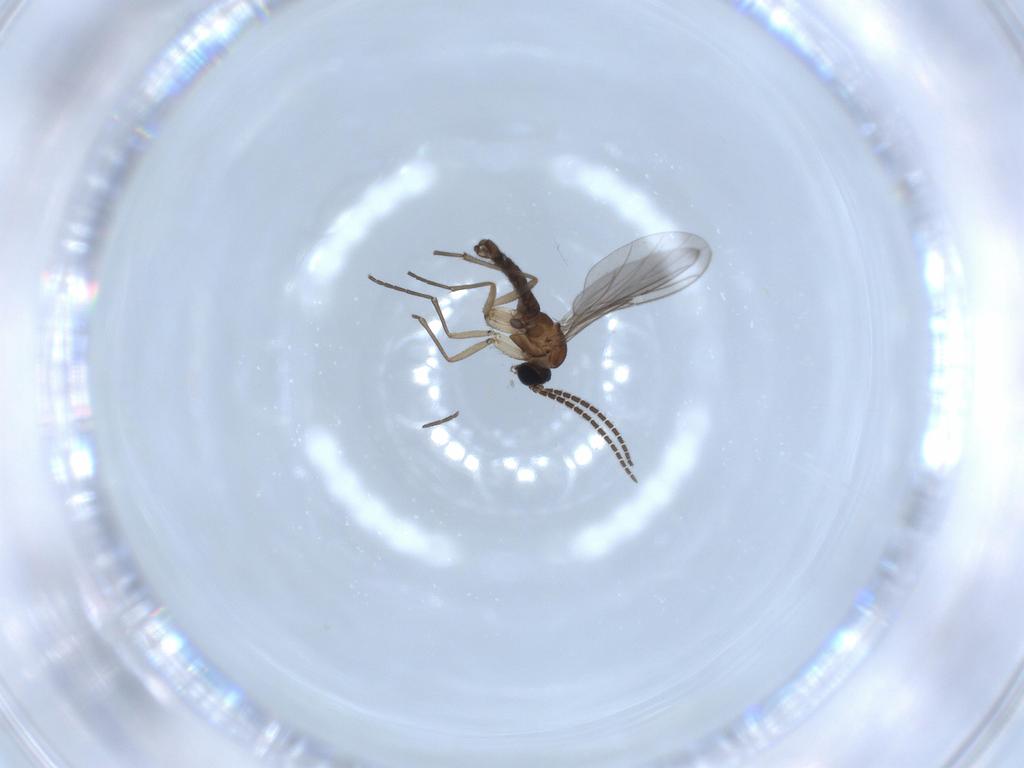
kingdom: Animalia
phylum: Arthropoda
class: Insecta
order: Diptera
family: Sciaridae
